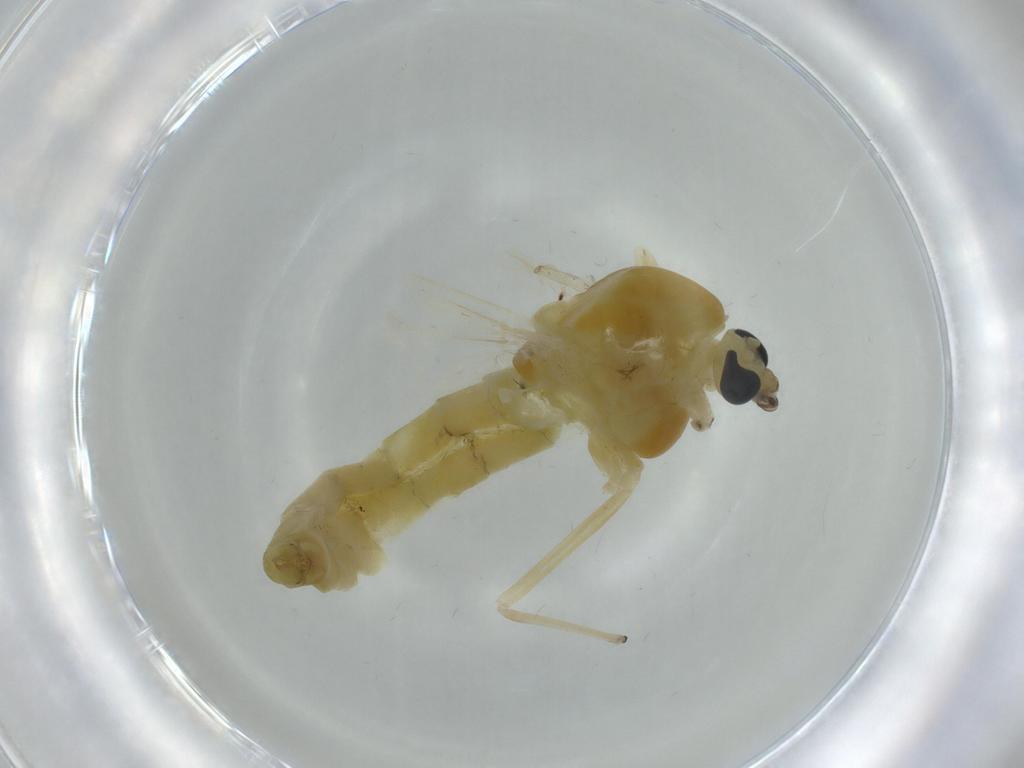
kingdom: Animalia
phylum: Arthropoda
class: Insecta
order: Diptera
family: Chironomidae
